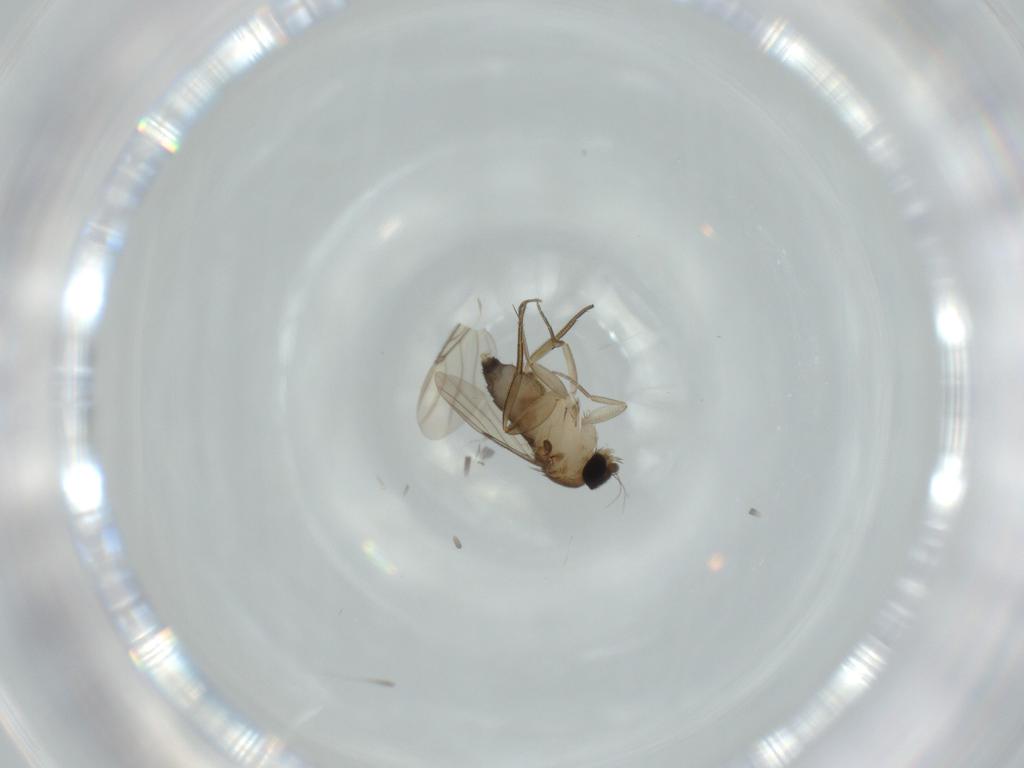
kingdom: Animalia
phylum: Arthropoda
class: Insecta
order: Diptera
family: Phoridae
